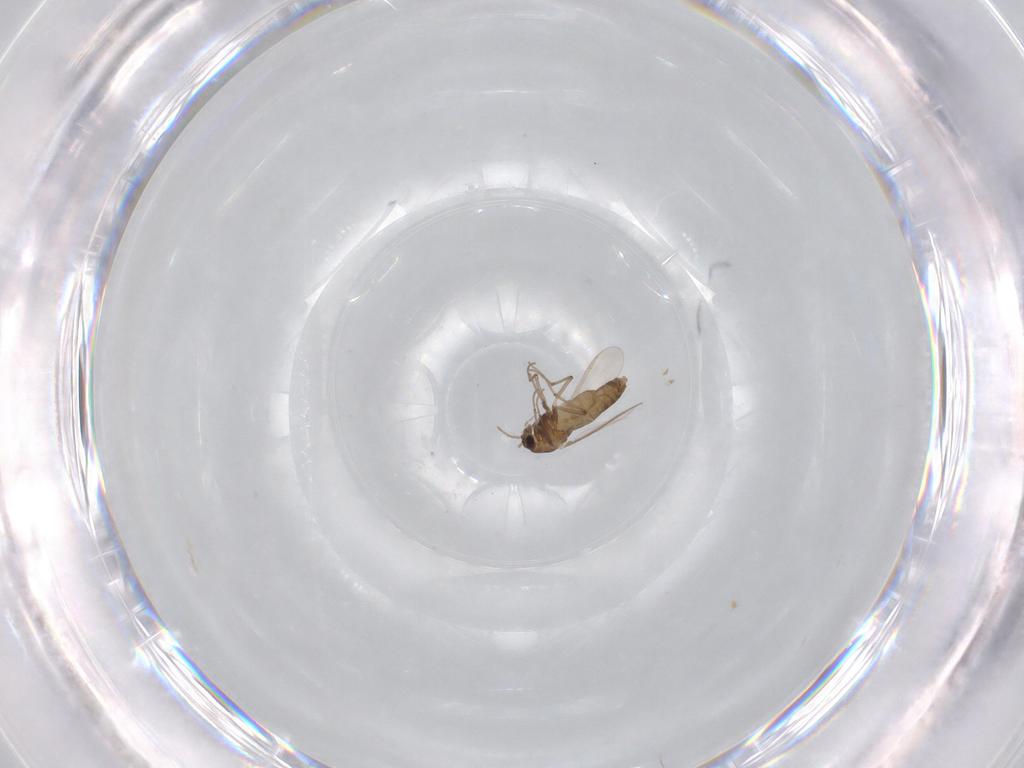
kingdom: Animalia
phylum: Arthropoda
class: Insecta
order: Diptera
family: Chironomidae
